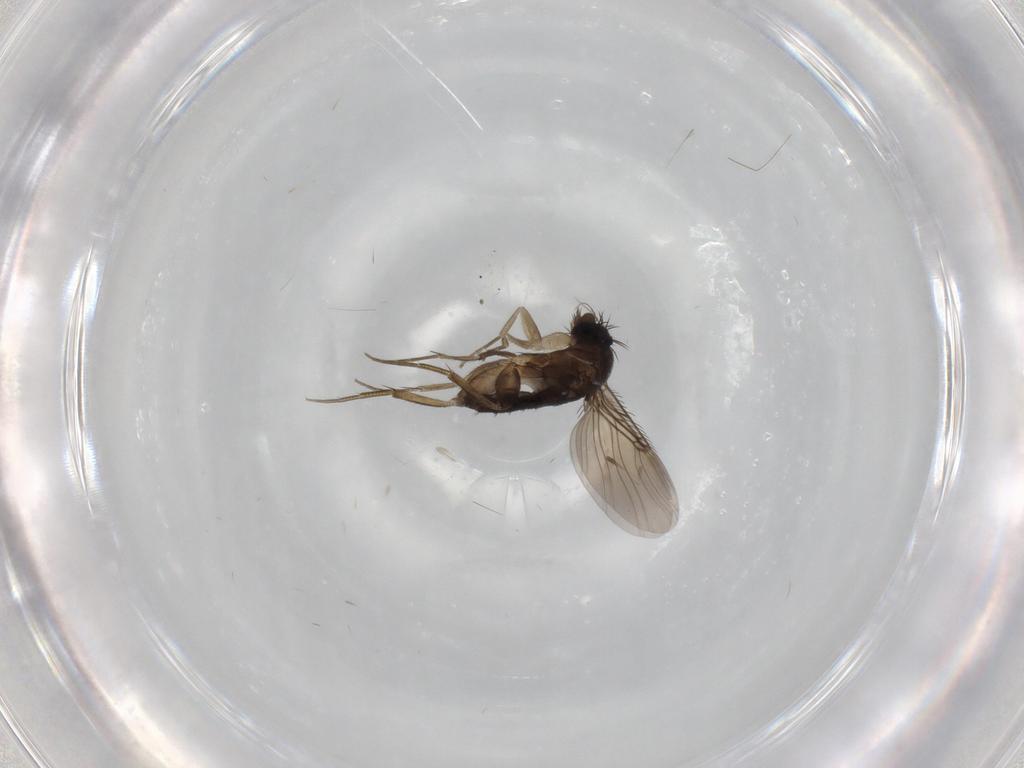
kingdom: Animalia
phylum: Arthropoda
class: Insecta
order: Diptera
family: Phoridae
